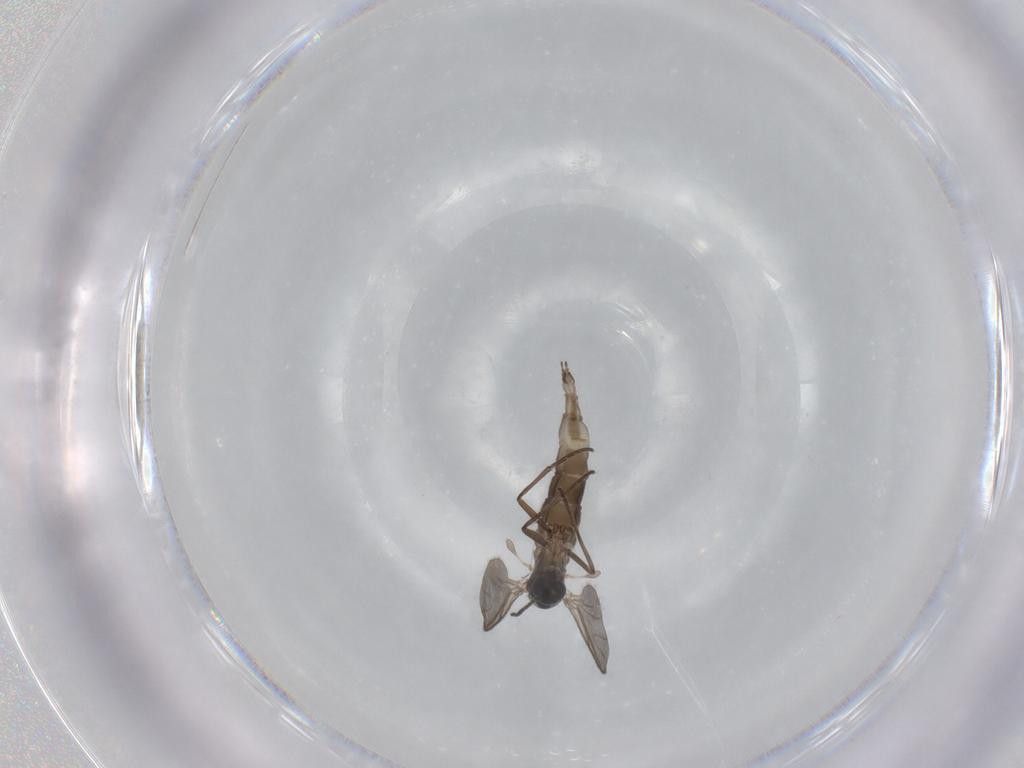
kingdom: Animalia
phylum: Arthropoda
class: Insecta
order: Diptera
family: Sciaridae
